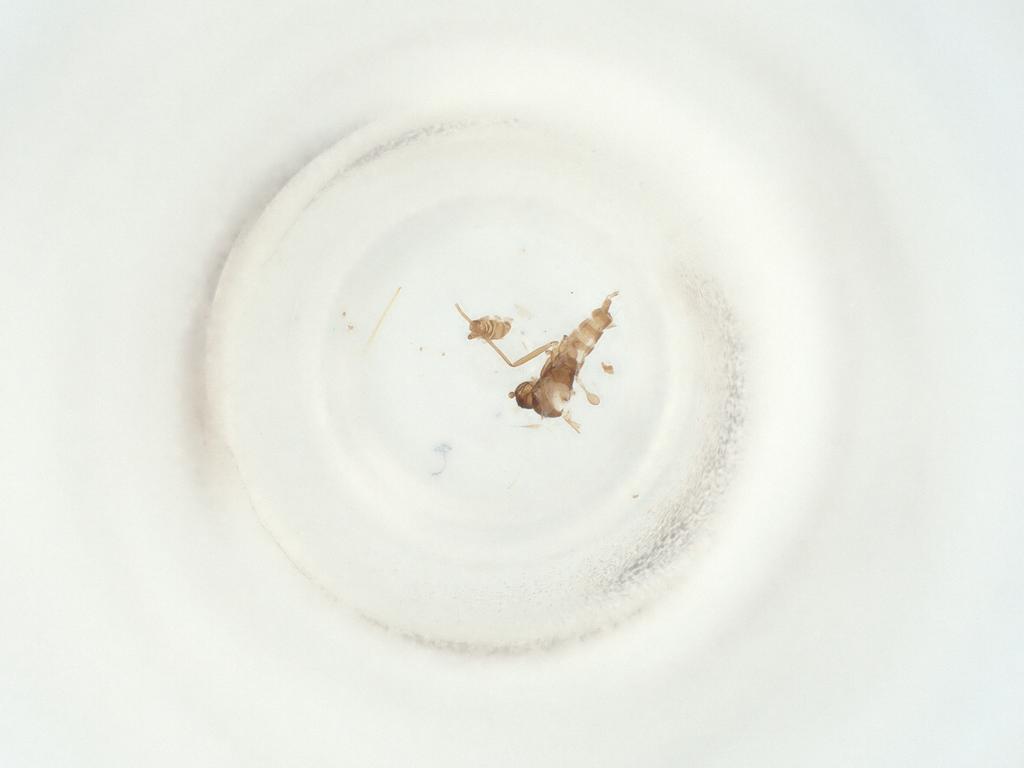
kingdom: Animalia
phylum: Arthropoda
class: Insecta
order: Diptera
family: Sciaridae
